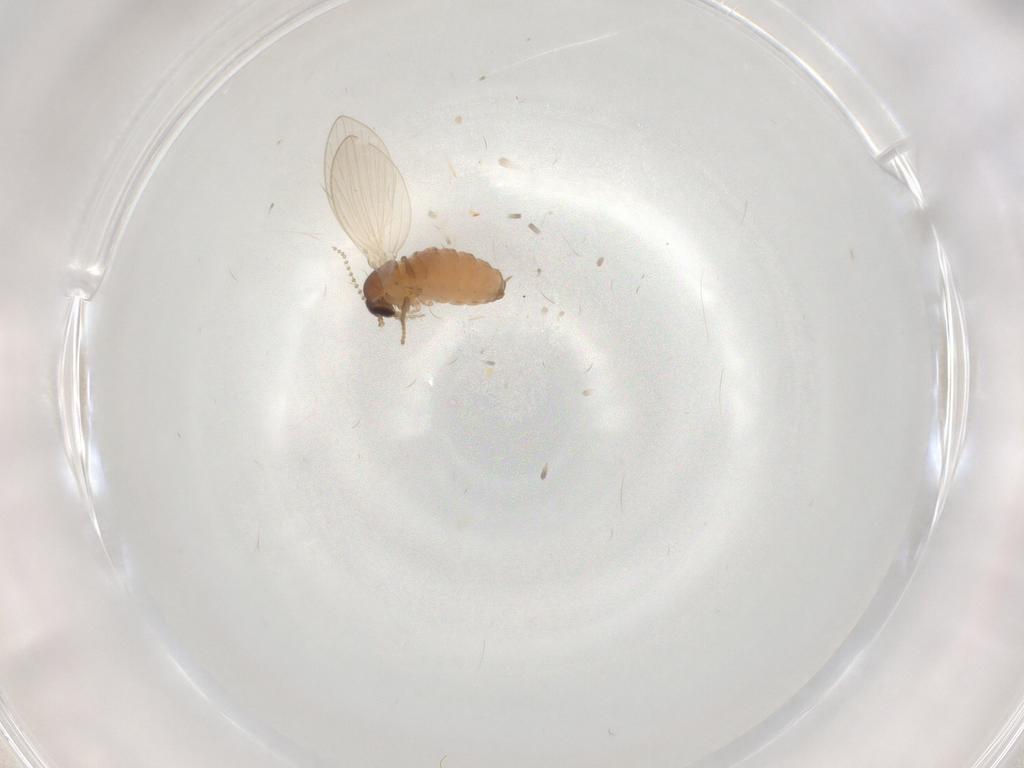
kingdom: Animalia
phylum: Arthropoda
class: Insecta
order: Diptera
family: Psychodidae
